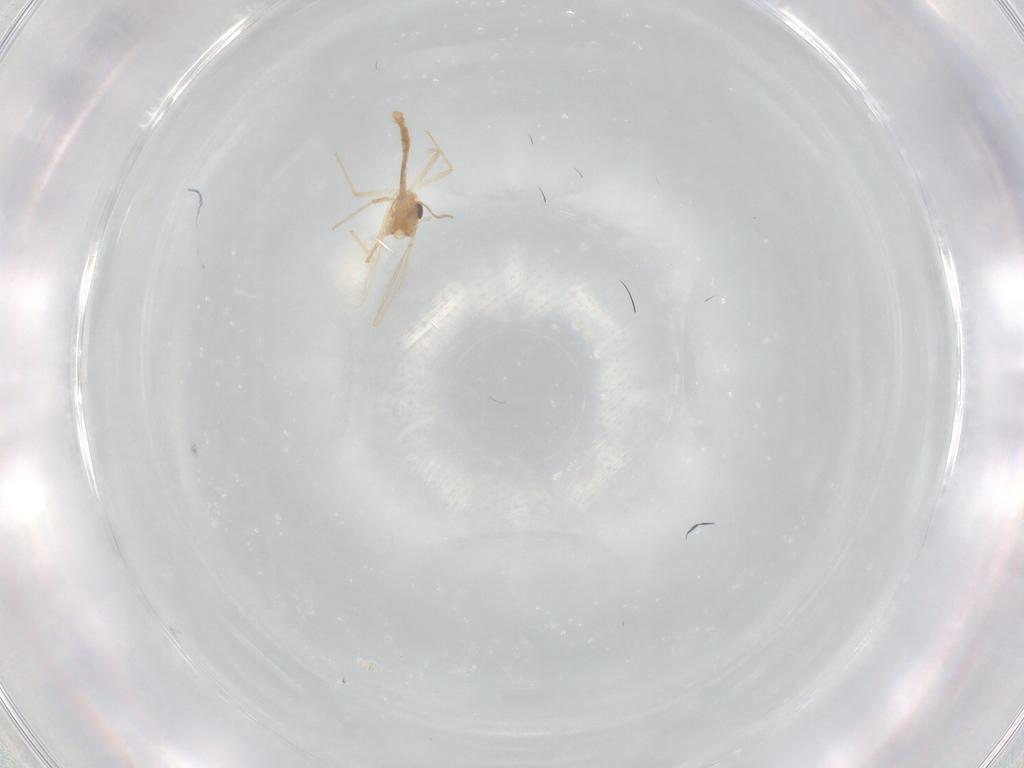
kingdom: Animalia
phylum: Arthropoda
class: Insecta
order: Diptera
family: Chironomidae
